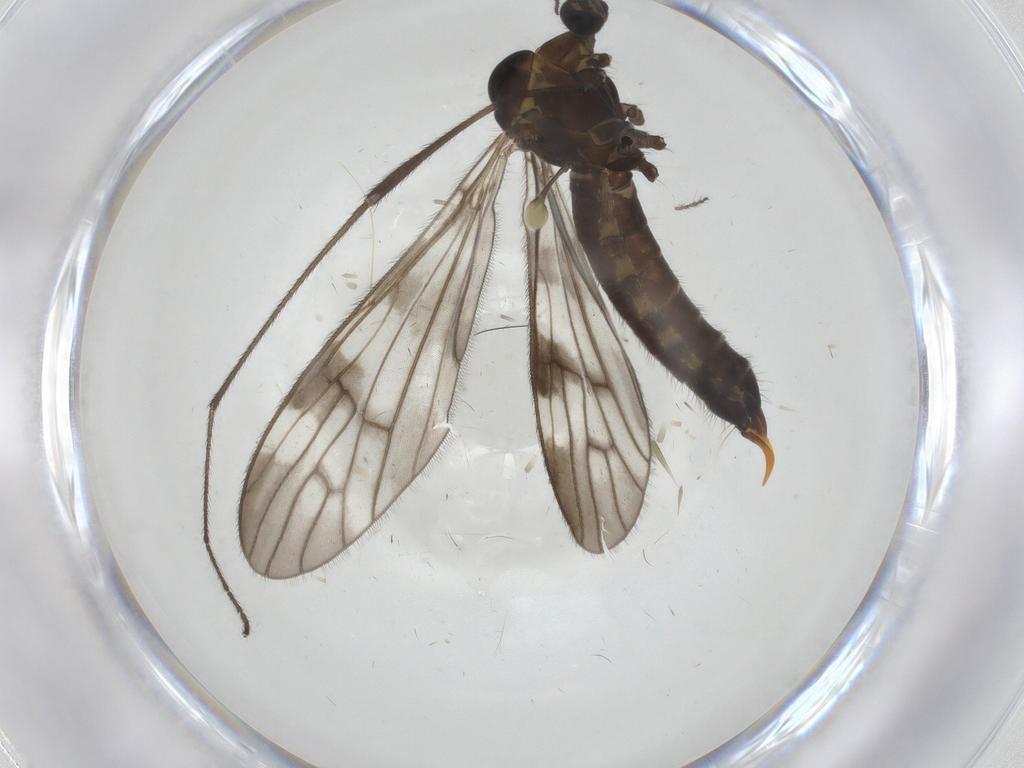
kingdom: Animalia
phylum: Arthropoda
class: Insecta
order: Diptera
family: Limoniidae
